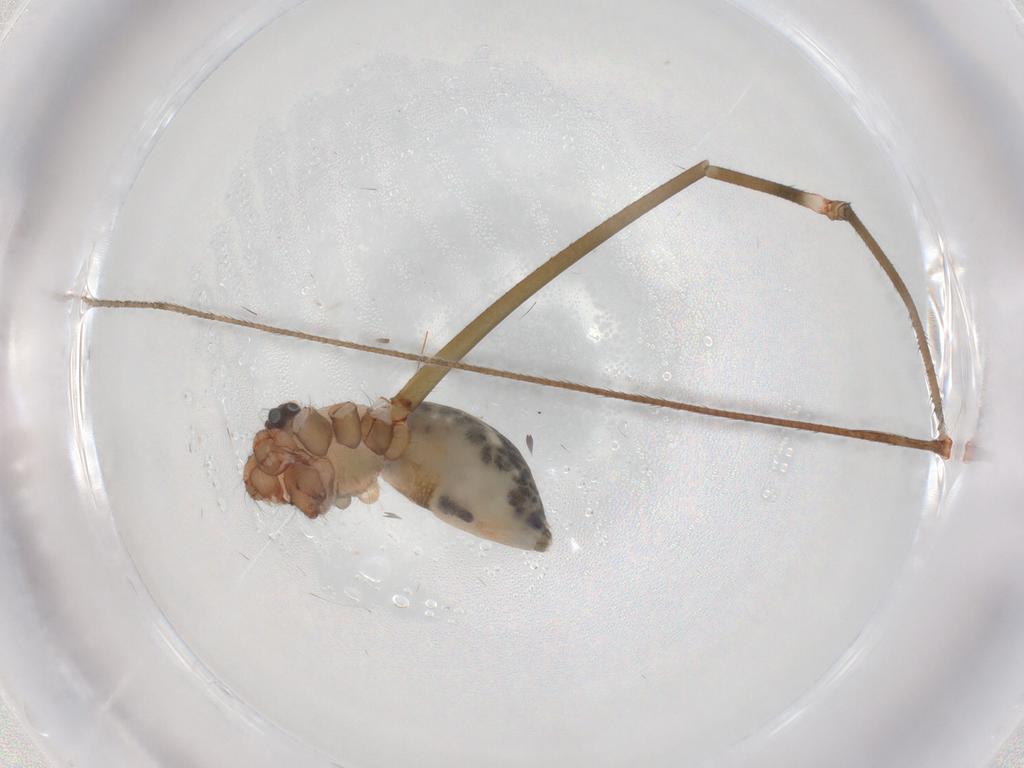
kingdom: Animalia
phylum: Arthropoda
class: Arachnida
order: Araneae
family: Pholcidae
